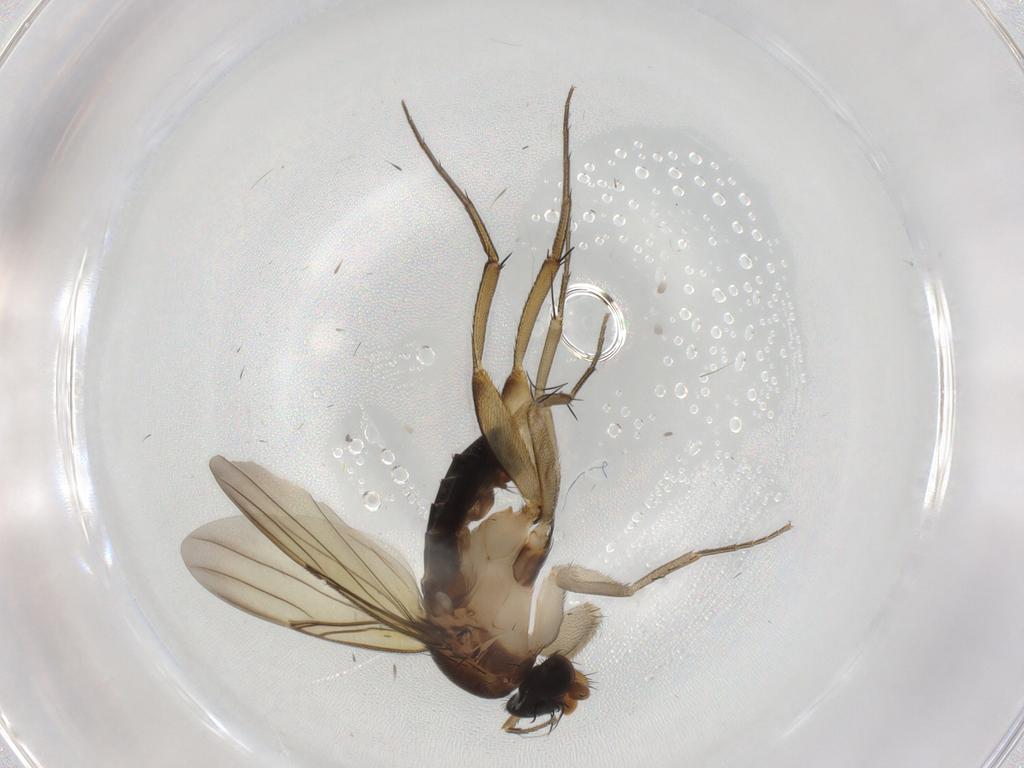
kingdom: Animalia
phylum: Arthropoda
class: Insecta
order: Diptera
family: Phoridae
